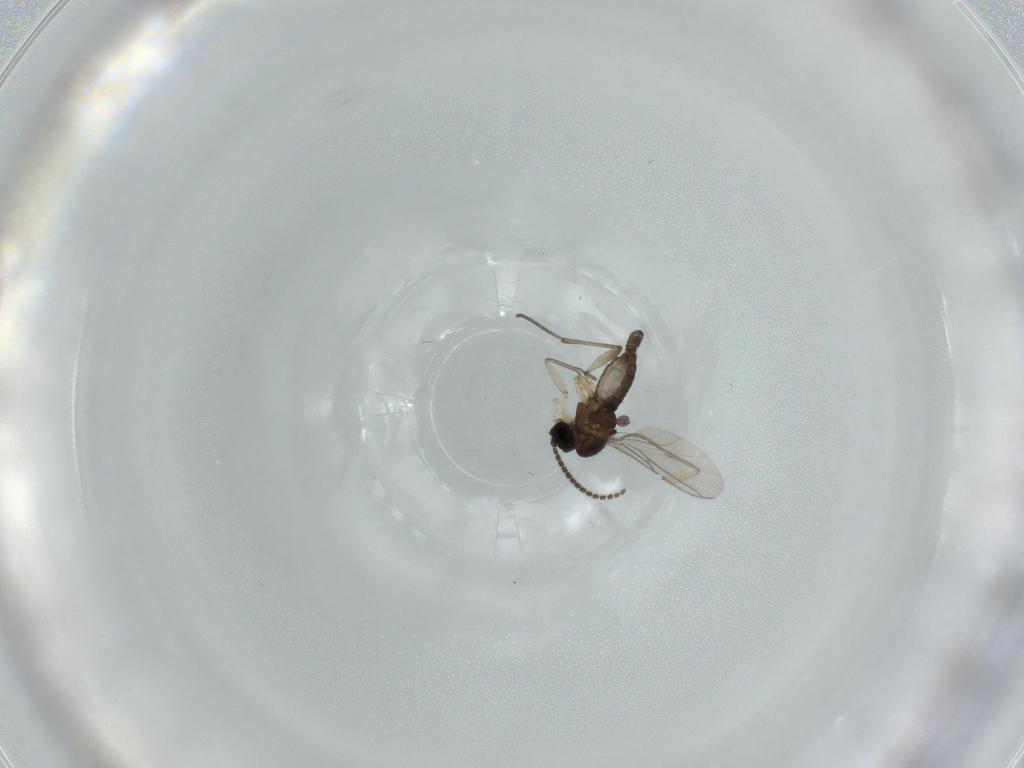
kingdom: Animalia
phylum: Arthropoda
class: Insecta
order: Diptera
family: Sciaridae
